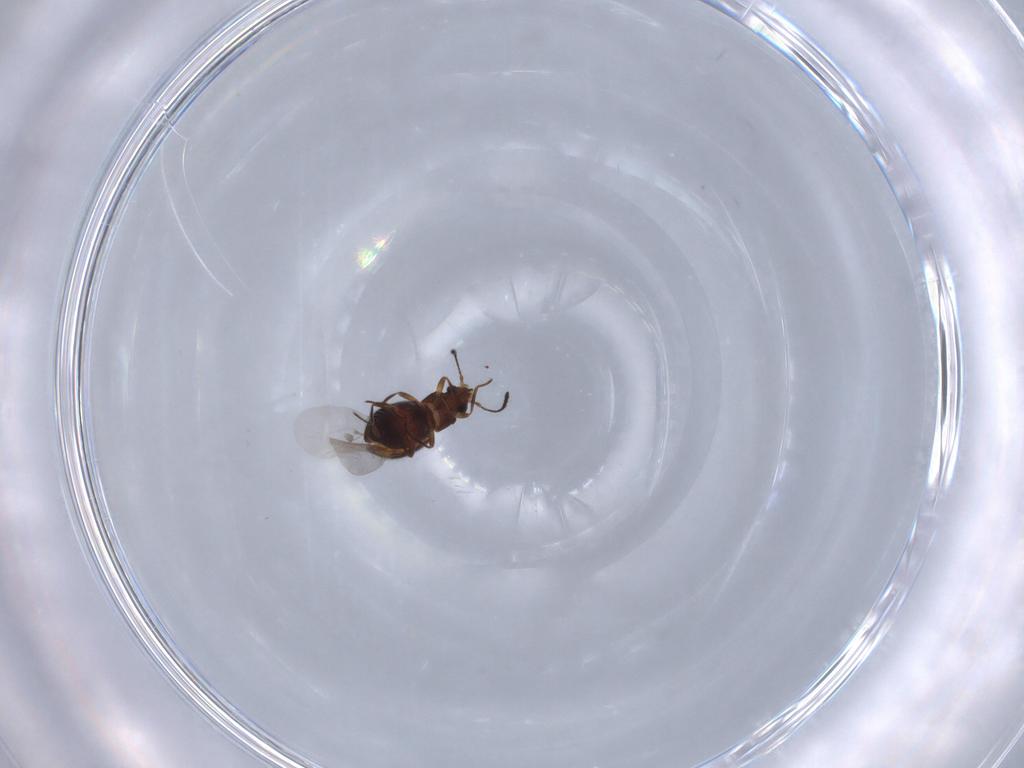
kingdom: Animalia
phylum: Arthropoda
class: Insecta
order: Coleoptera
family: Cryptophagidae
